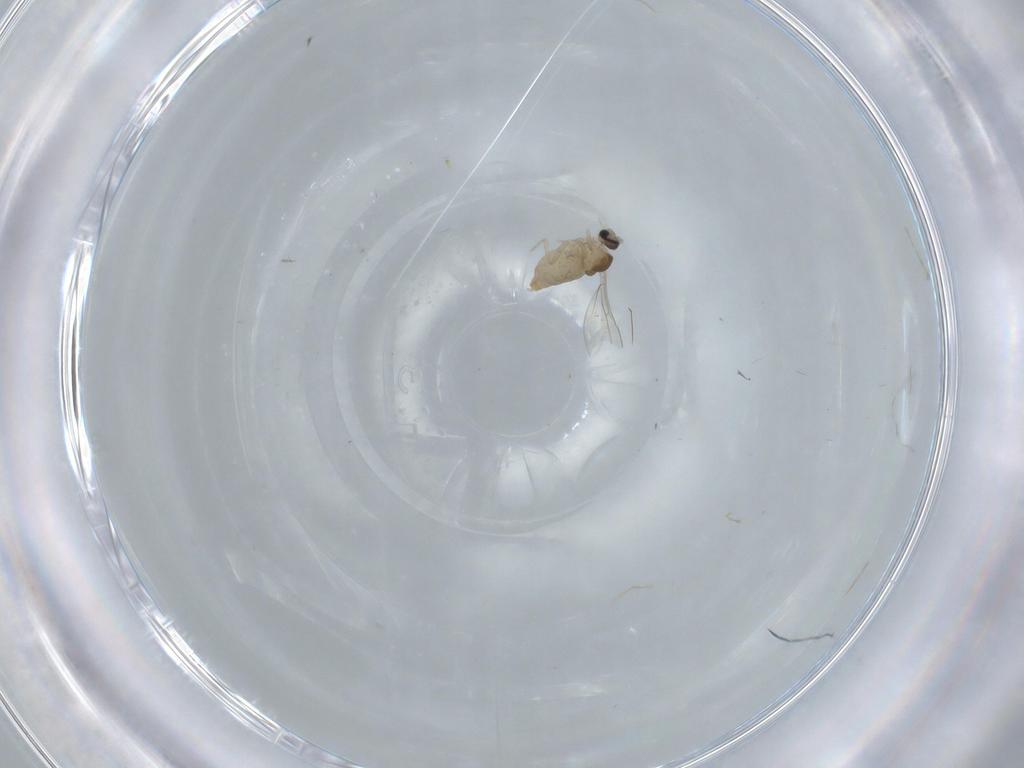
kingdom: Animalia
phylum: Arthropoda
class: Insecta
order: Diptera
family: Cecidomyiidae
